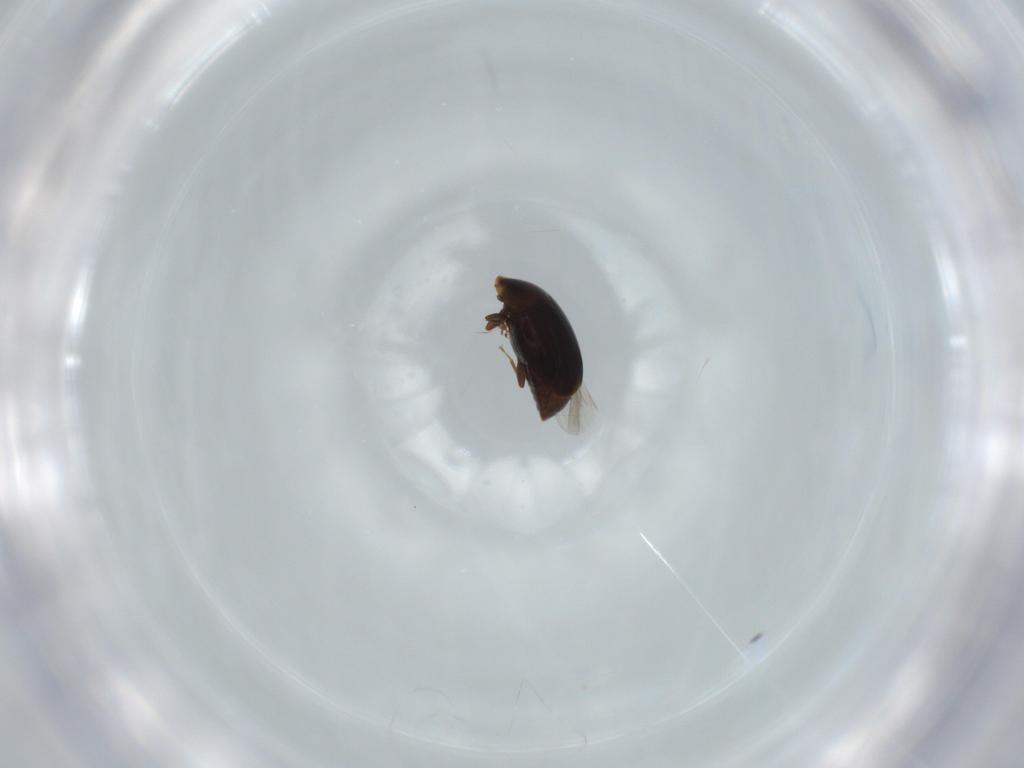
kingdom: Animalia
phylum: Arthropoda
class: Insecta
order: Coleoptera
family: Corylophidae
